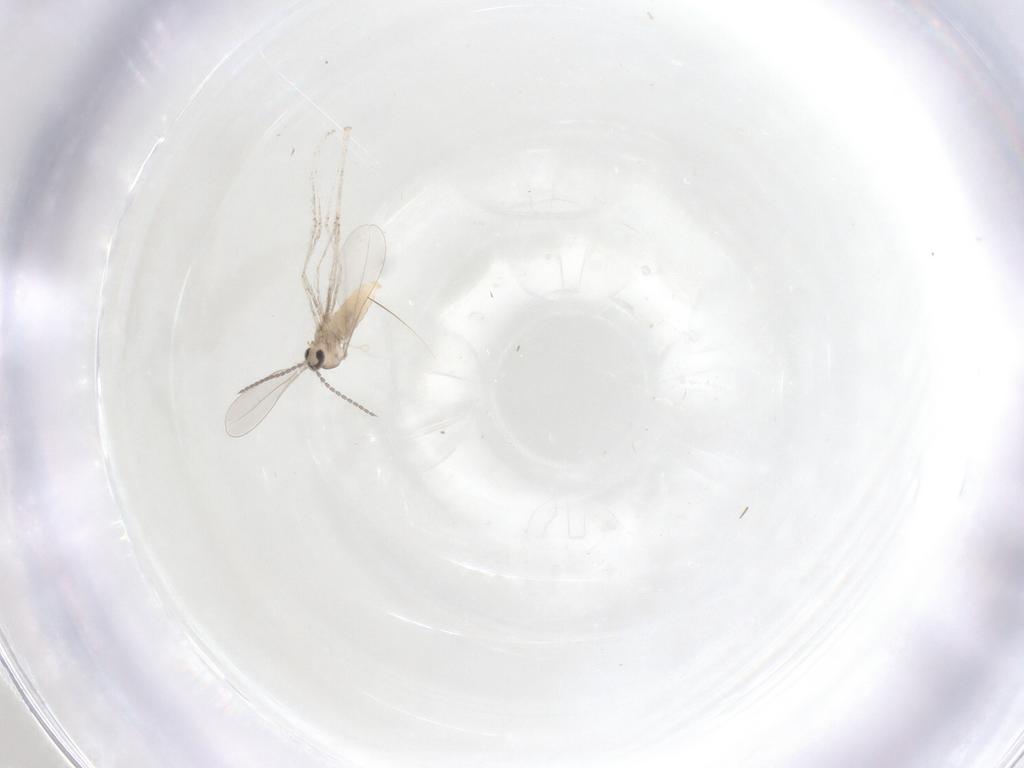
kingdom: Animalia
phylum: Arthropoda
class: Insecta
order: Diptera
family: Cecidomyiidae
